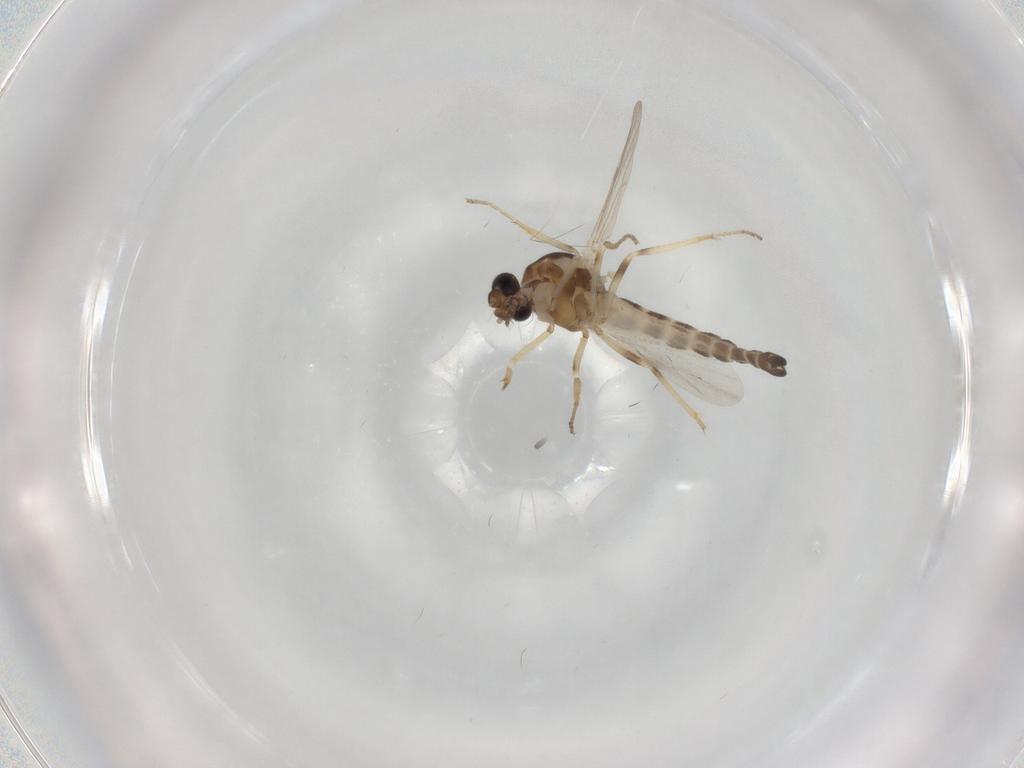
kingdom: Animalia
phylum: Arthropoda
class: Insecta
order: Diptera
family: Ceratopogonidae
